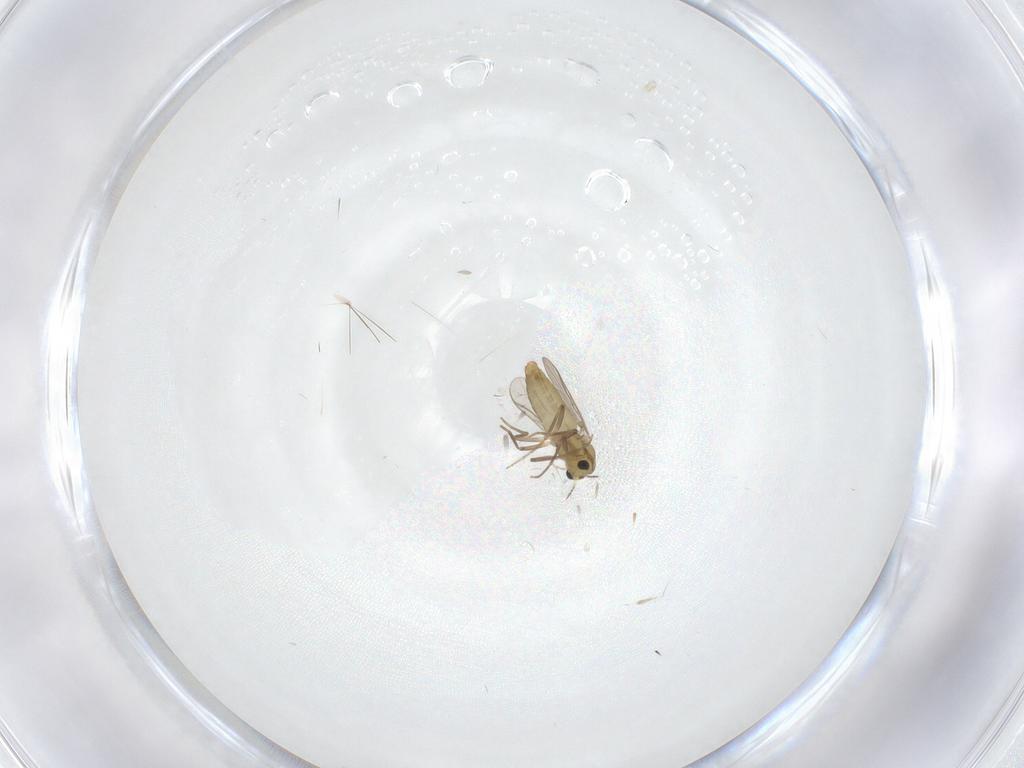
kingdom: Animalia
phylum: Arthropoda
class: Insecta
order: Diptera
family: Chironomidae
